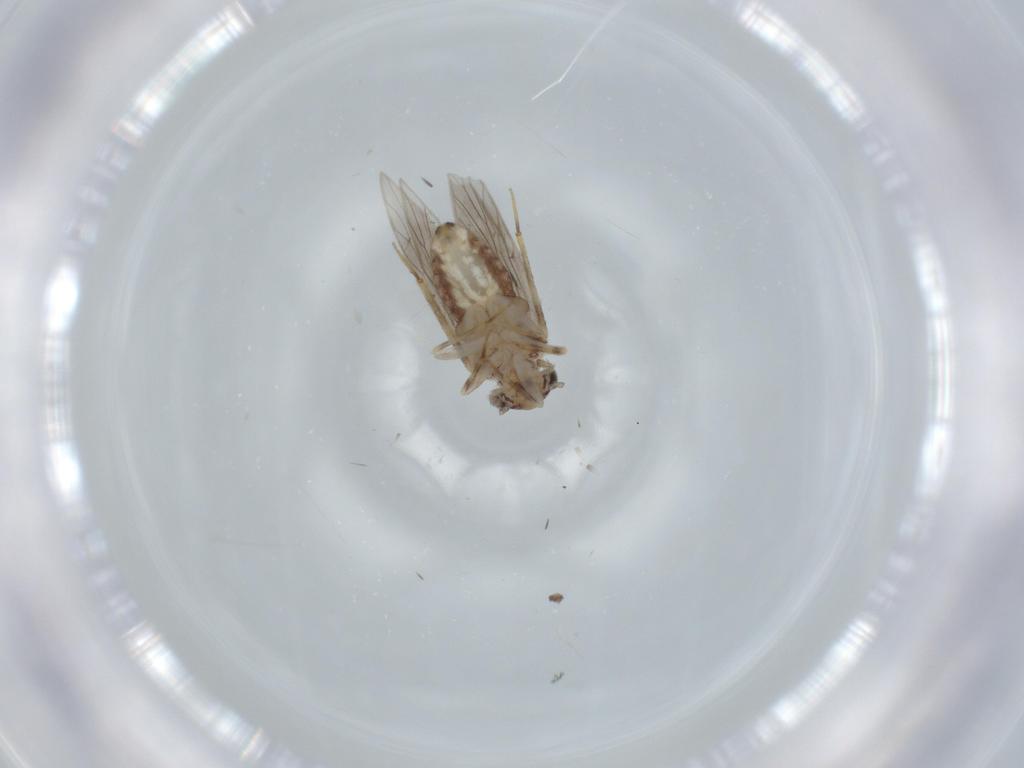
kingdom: Animalia
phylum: Arthropoda
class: Insecta
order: Psocodea
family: Lepidopsocidae
